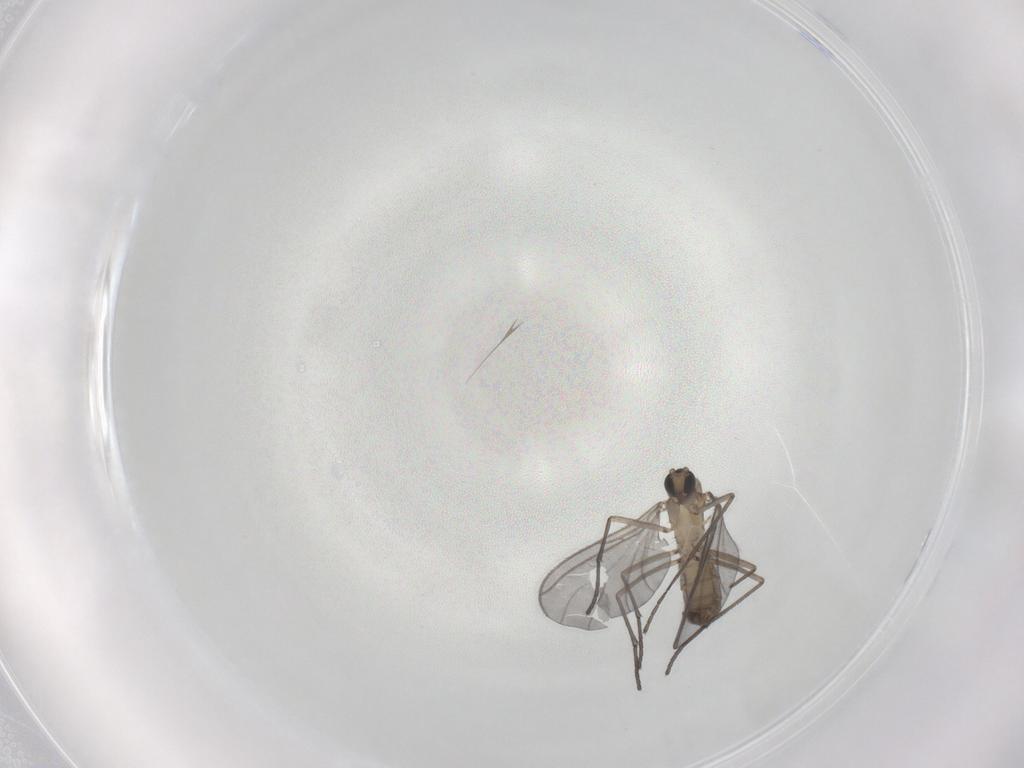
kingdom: Animalia
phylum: Arthropoda
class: Insecta
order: Diptera
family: Sciaridae
